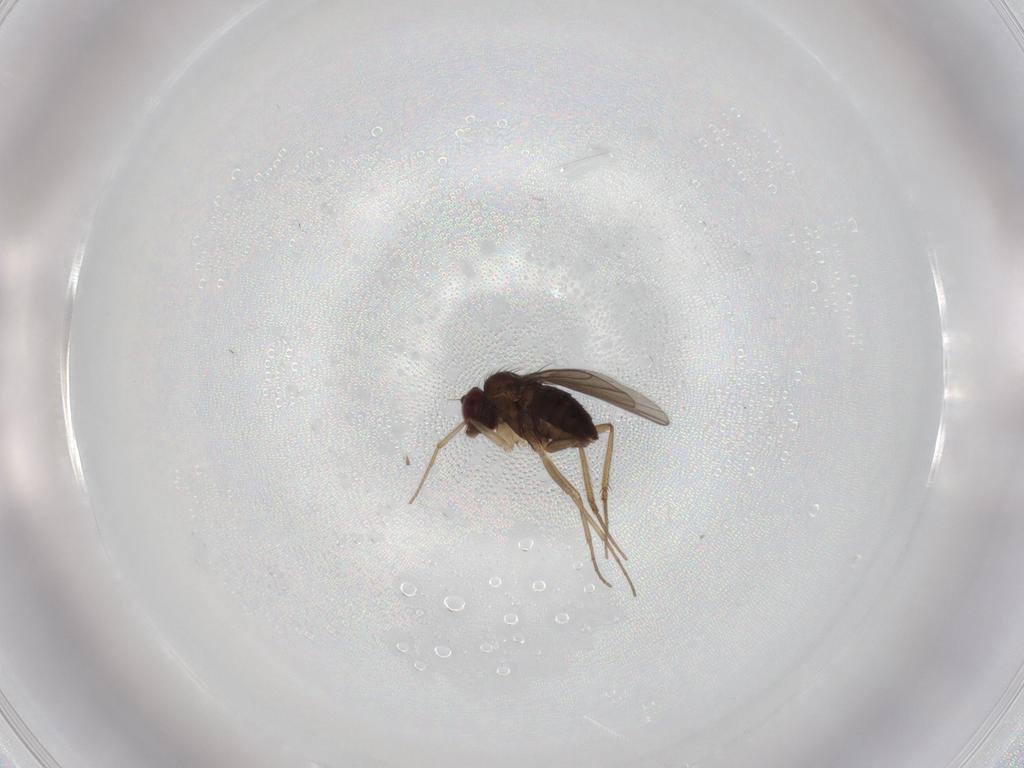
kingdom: Animalia
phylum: Arthropoda
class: Insecta
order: Diptera
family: Dolichopodidae
